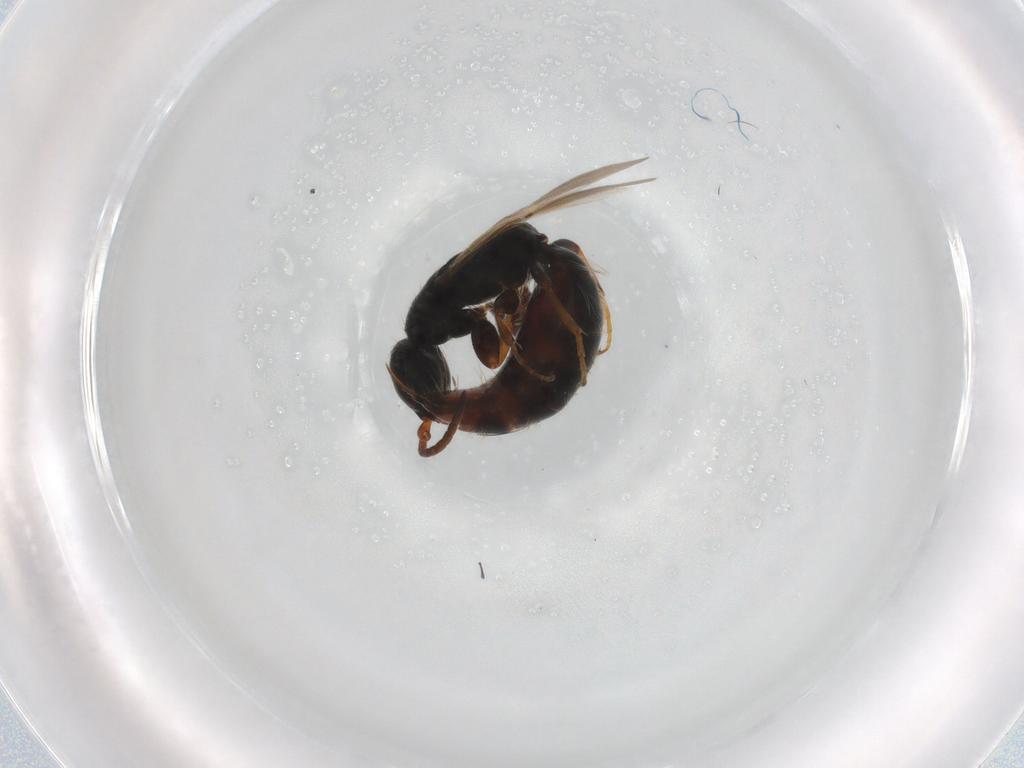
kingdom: Animalia
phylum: Arthropoda
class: Insecta
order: Hymenoptera
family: Bethylidae
